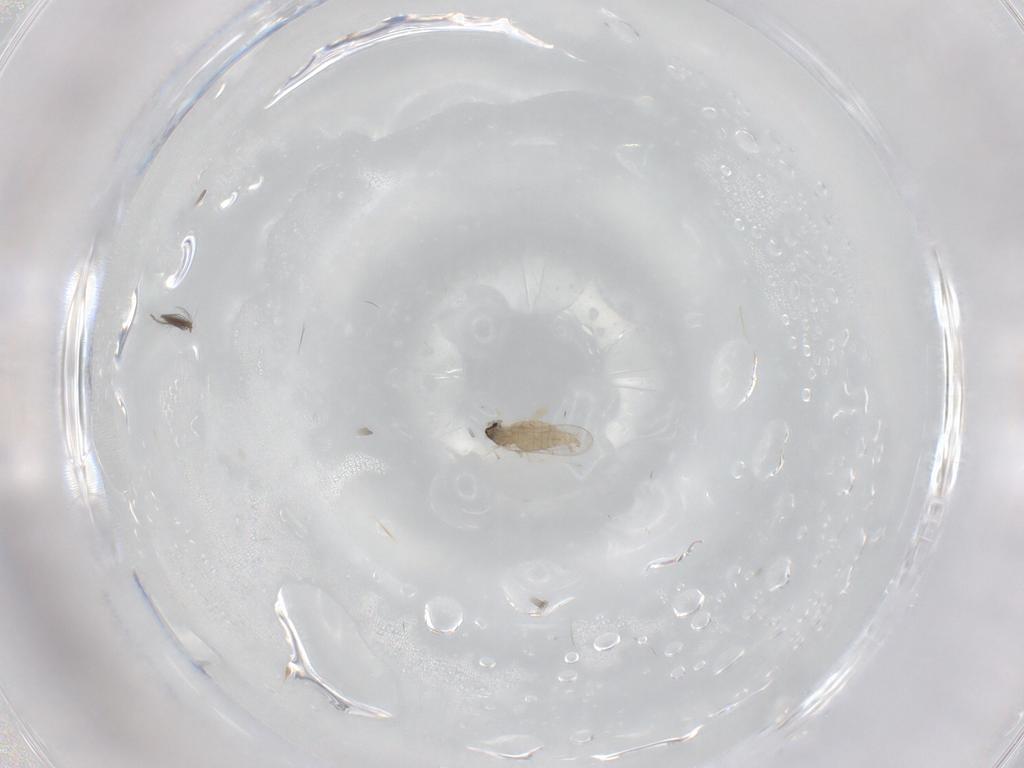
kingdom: Animalia
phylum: Arthropoda
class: Insecta
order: Diptera
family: Cecidomyiidae
